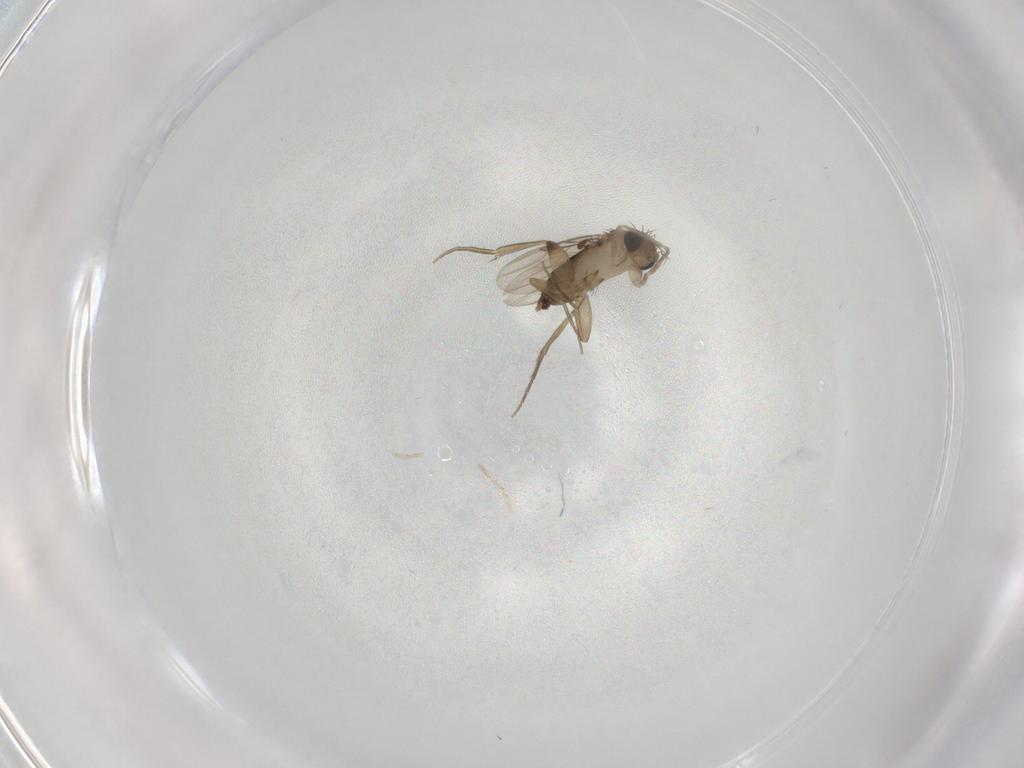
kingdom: Animalia
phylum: Arthropoda
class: Insecta
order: Diptera
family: Phoridae
